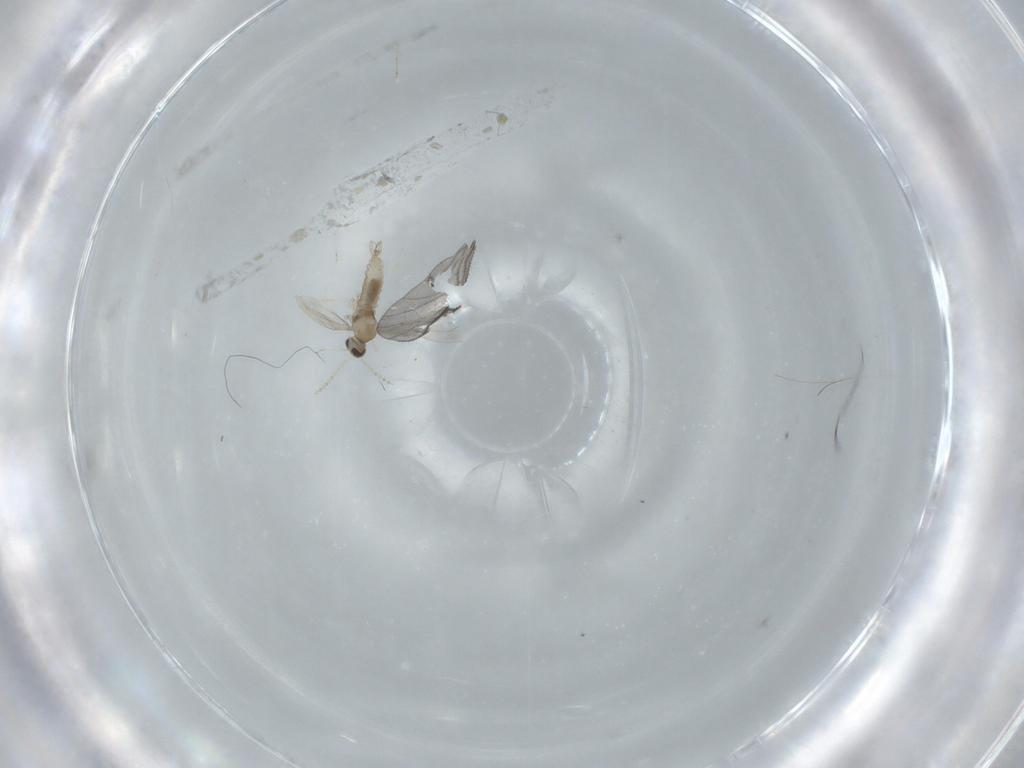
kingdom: Animalia
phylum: Arthropoda
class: Insecta
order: Diptera
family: Cecidomyiidae
